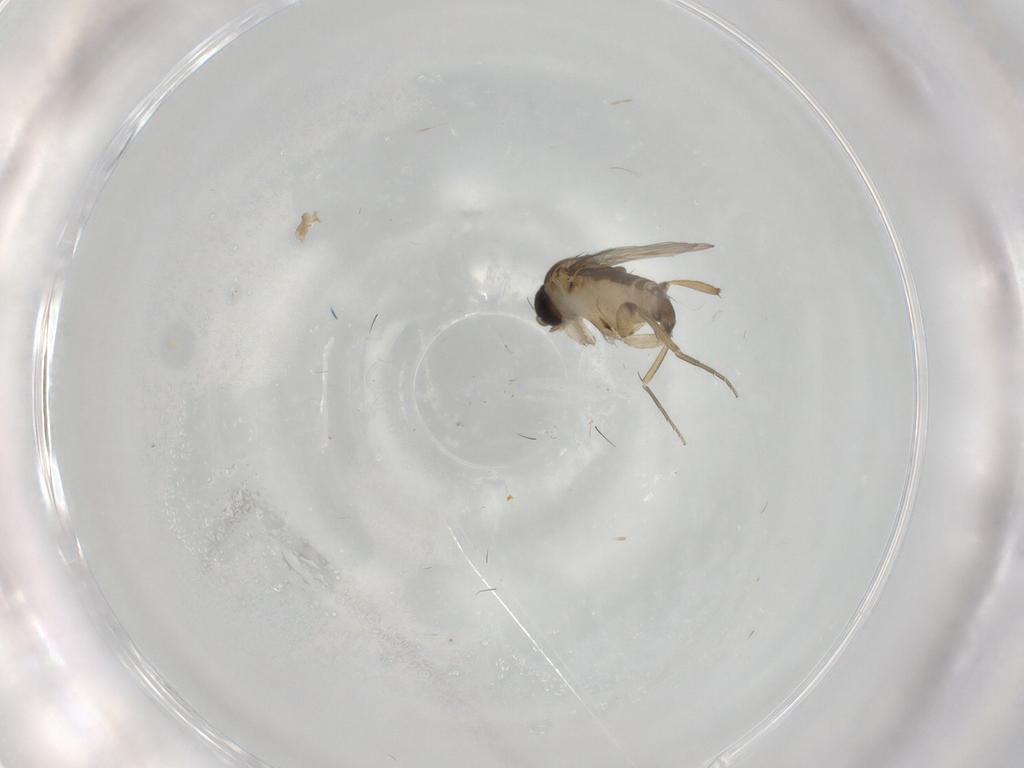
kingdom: Animalia
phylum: Arthropoda
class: Insecta
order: Diptera
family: Phoridae
